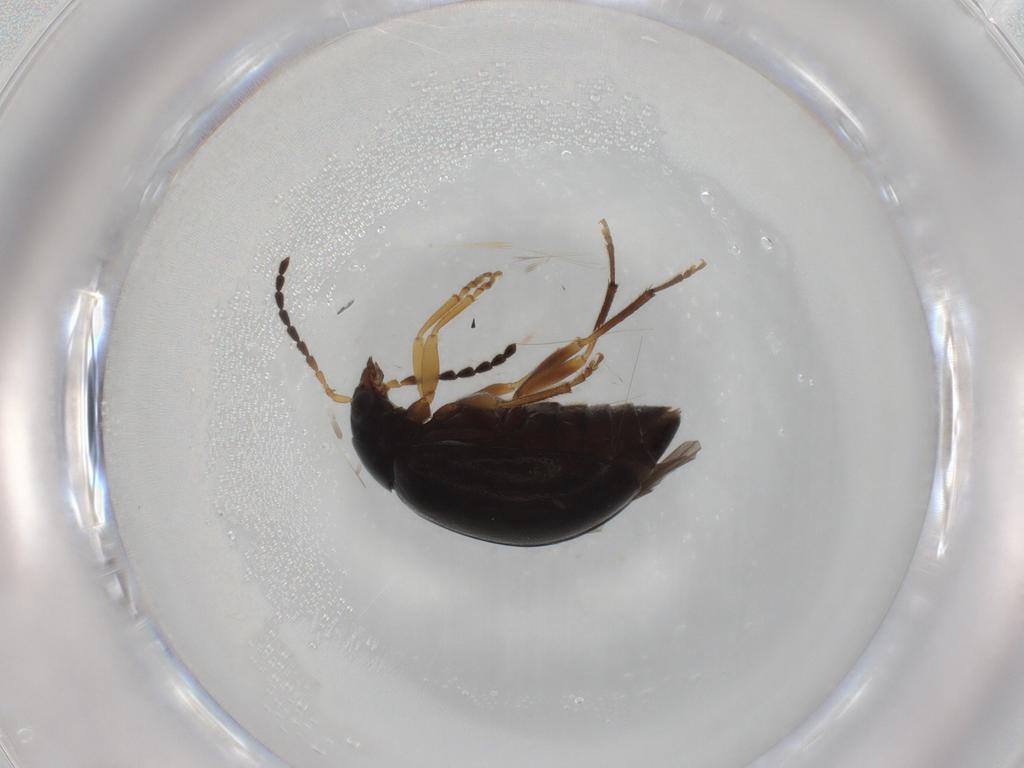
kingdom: Animalia
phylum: Arthropoda
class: Insecta
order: Coleoptera
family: Chrysomelidae
